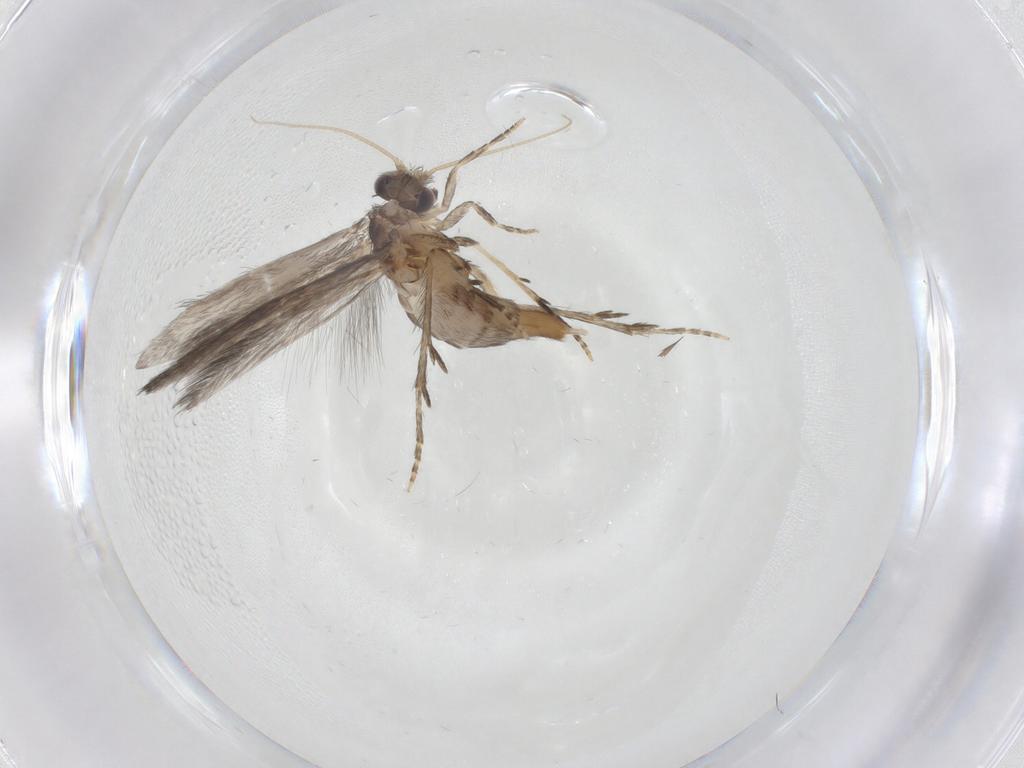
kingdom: Animalia
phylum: Arthropoda
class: Insecta
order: Trichoptera
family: Hydroptilidae
